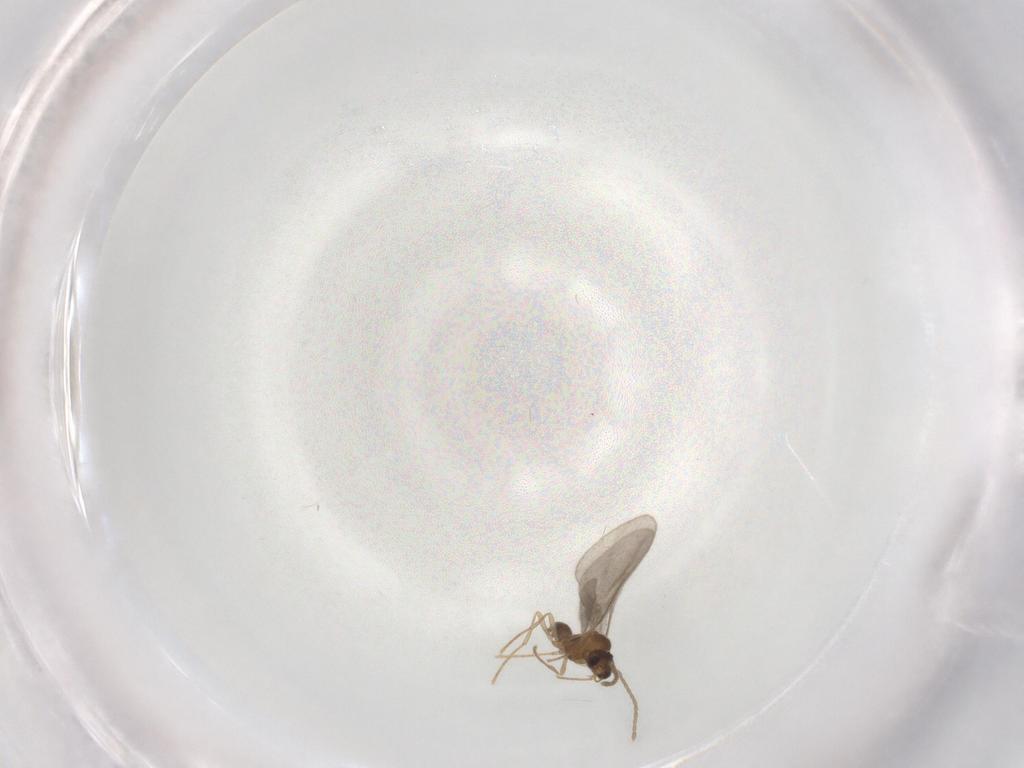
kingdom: Animalia
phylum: Arthropoda
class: Insecta
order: Hymenoptera
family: Formicidae
